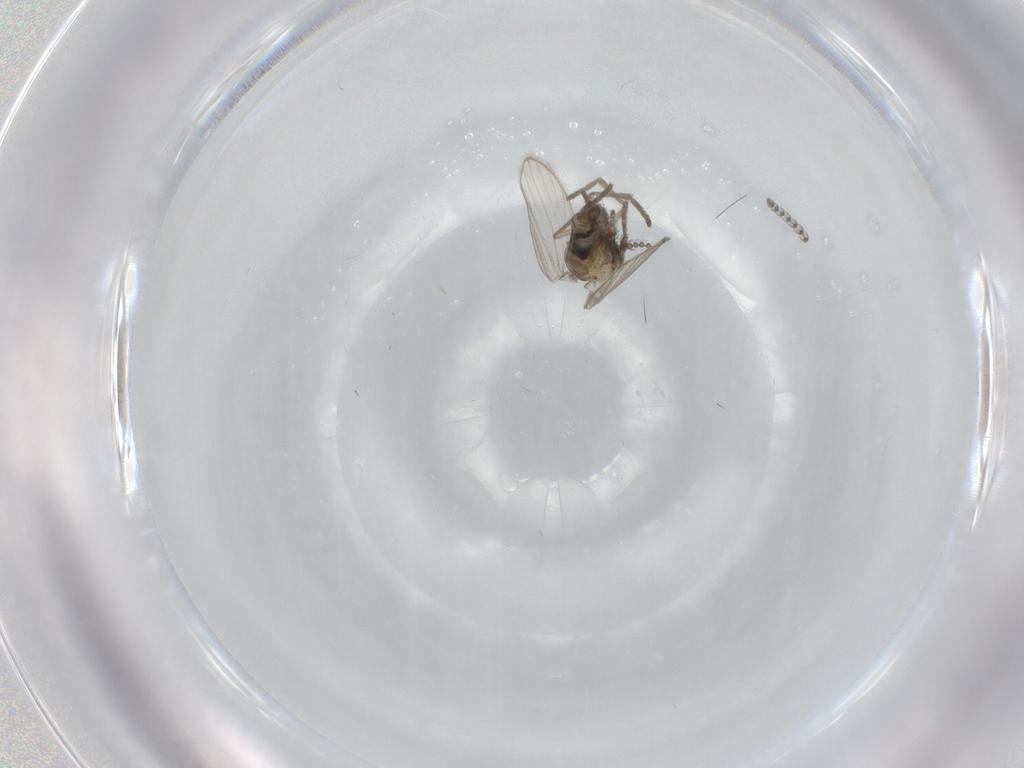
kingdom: Animalia
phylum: Arthropoda
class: Insecta
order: Diptera
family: Psychodidae
